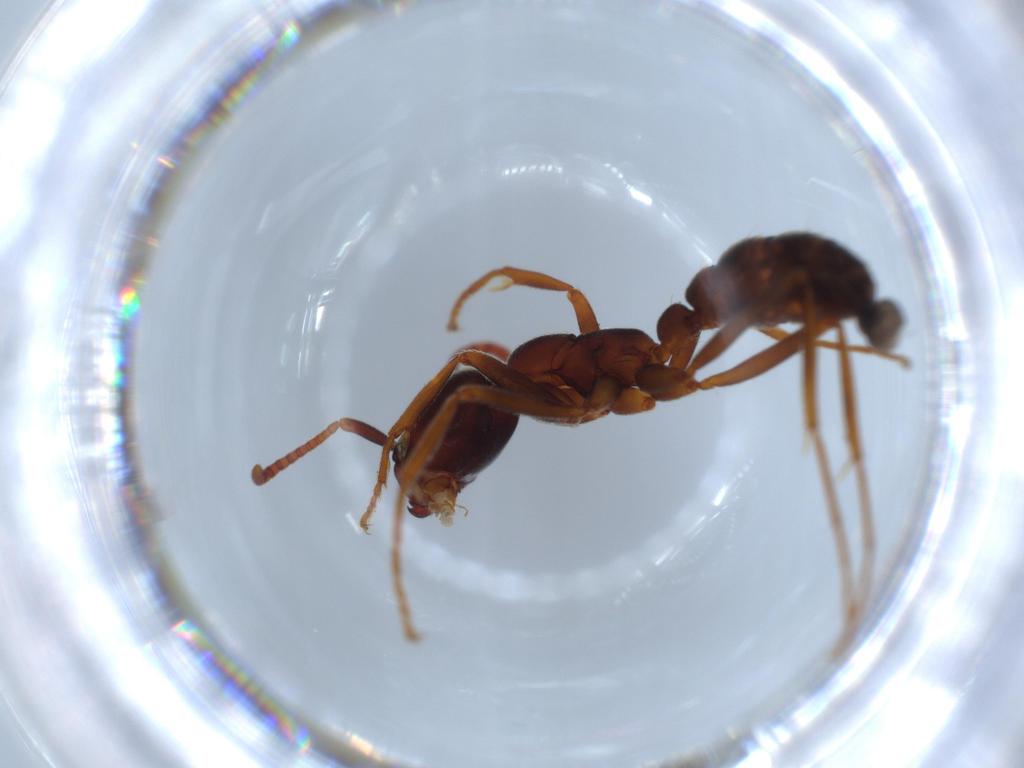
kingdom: Animalia
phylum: Arthropoda
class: Insecta
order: Hymenoptera
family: Formicidae
